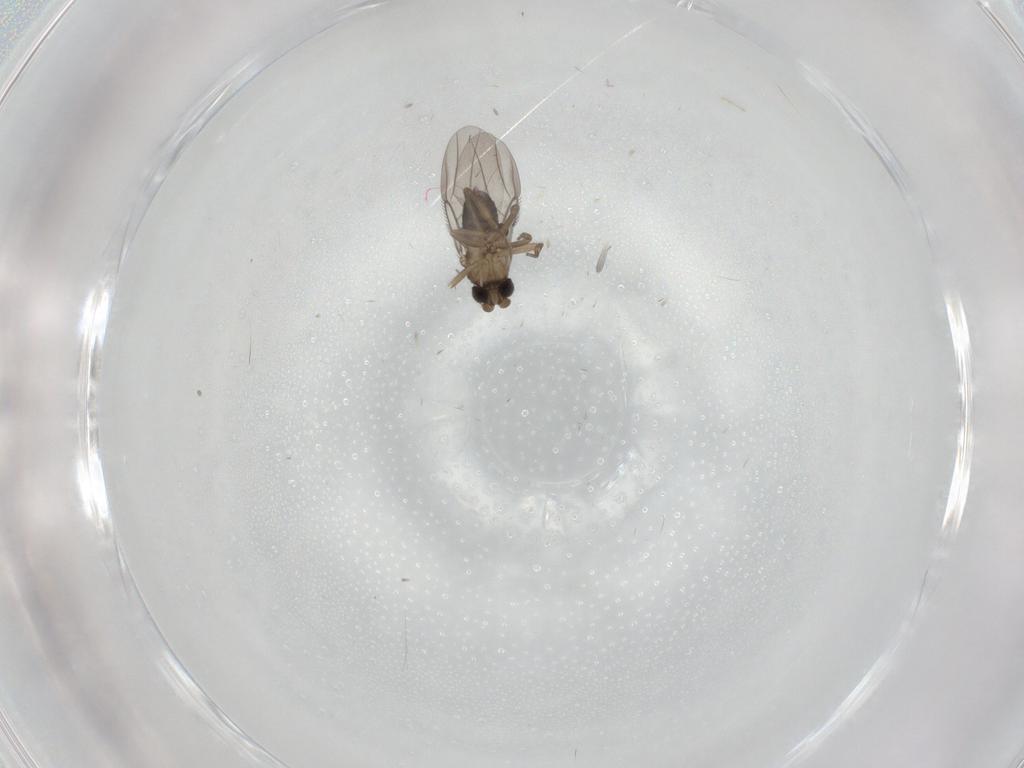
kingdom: Animalia
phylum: Arthropoda
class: Insecta
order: Diptera
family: Phoridae
